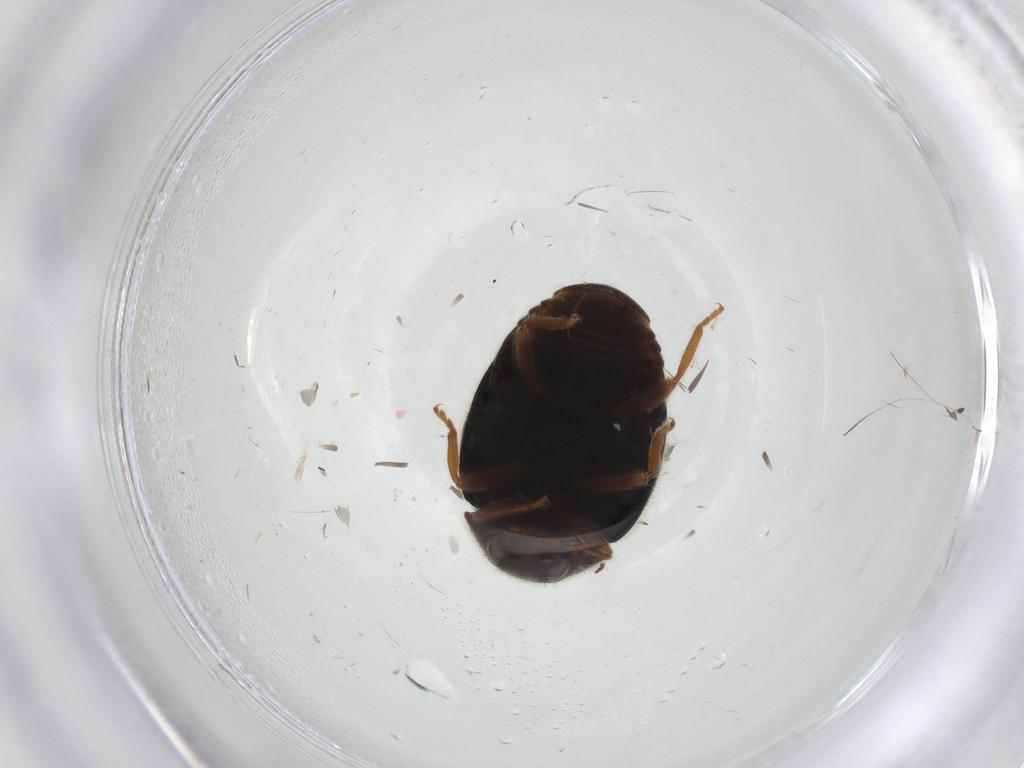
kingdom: Animalia
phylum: Arthropoda
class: Insecta
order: Coleoptera
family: Coccinellidae
